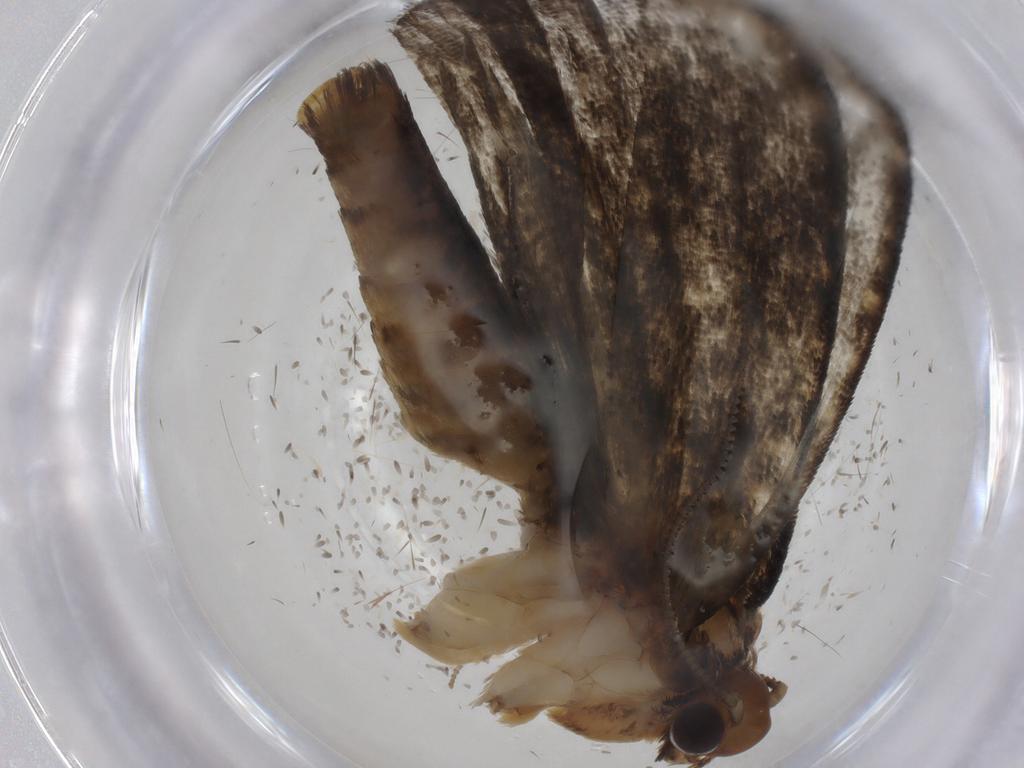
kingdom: Animalia
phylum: Arthropoda
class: Insecta
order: Lepidoptera
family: Tineidae
